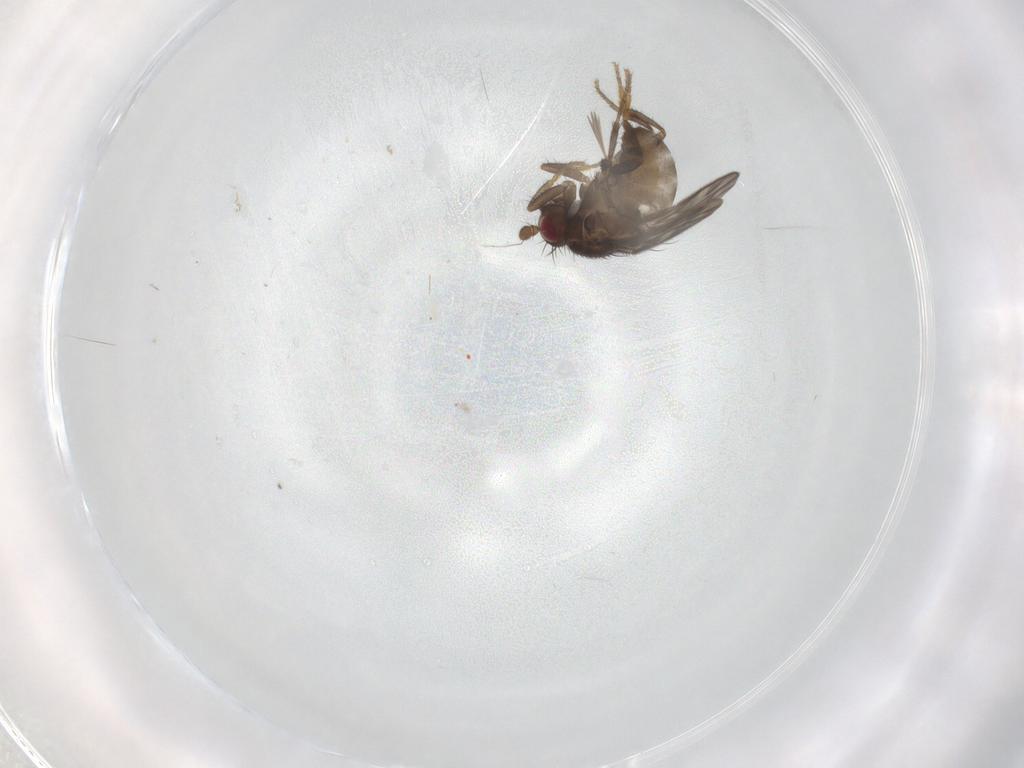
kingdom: Animalia
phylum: Arthropoda
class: Insecta
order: Diptera
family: Sphaeroceridae
